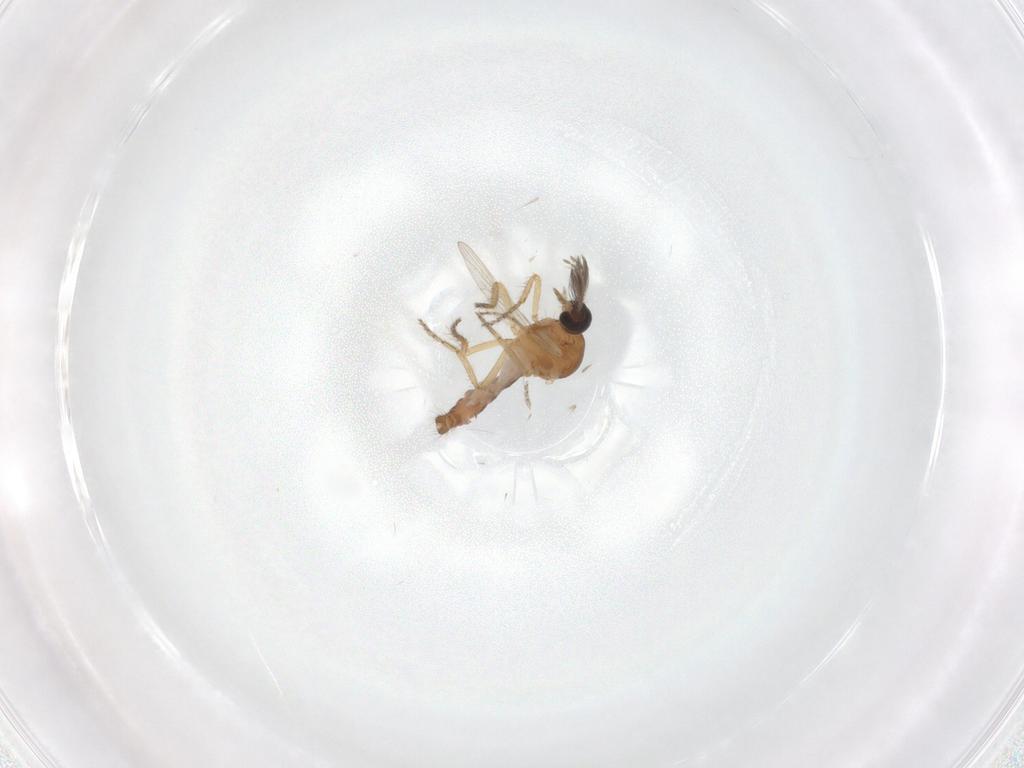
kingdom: Animalia
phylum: Arthropoda
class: Insecta
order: Diptera
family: Ceratopogonidae
